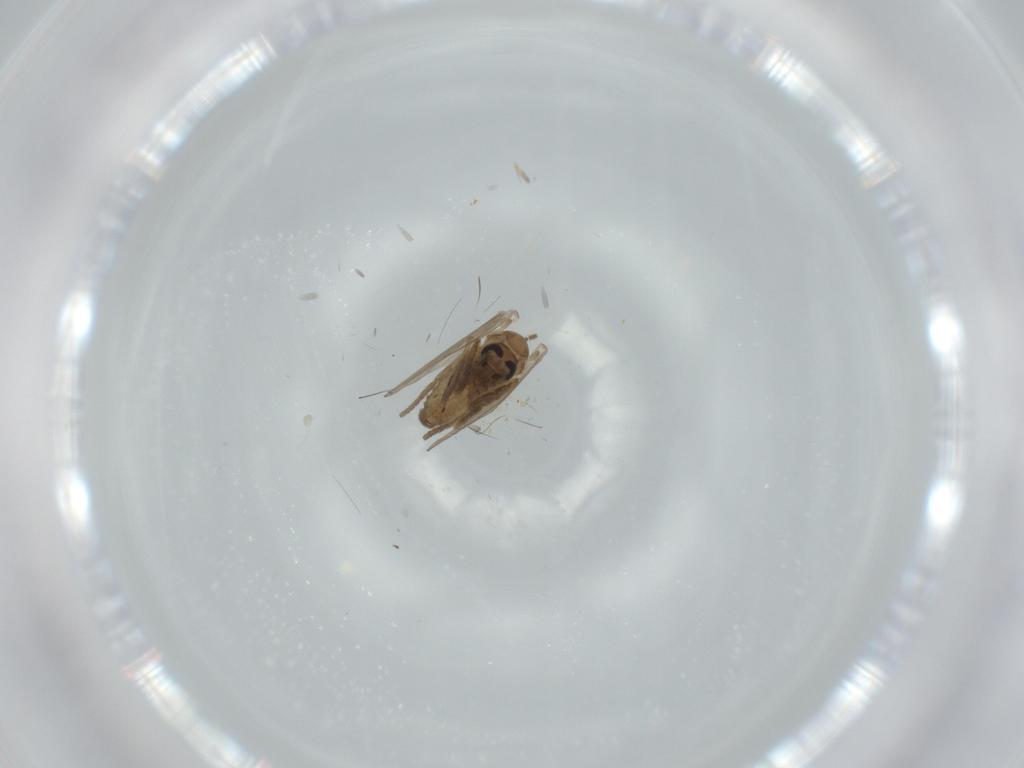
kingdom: Animalia
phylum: Arthropoda
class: Insecta
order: Diptera
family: Psychodidae
